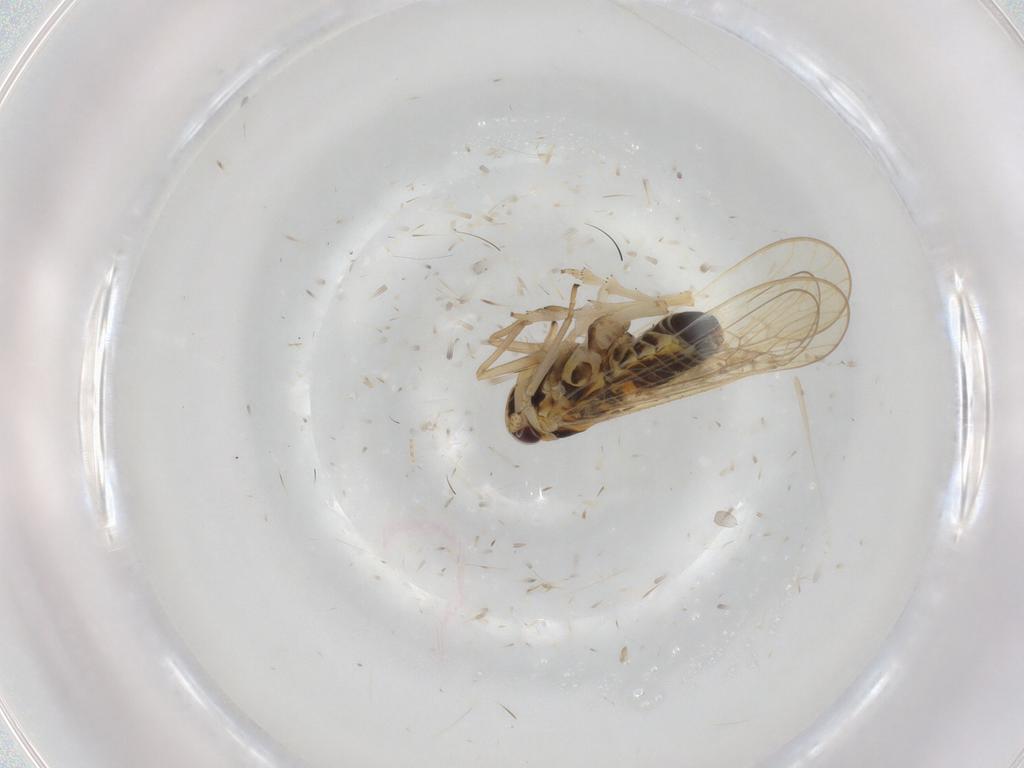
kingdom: Animalia
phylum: Arthropoda
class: Insecta
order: Hemiptera
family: Delphacidae
